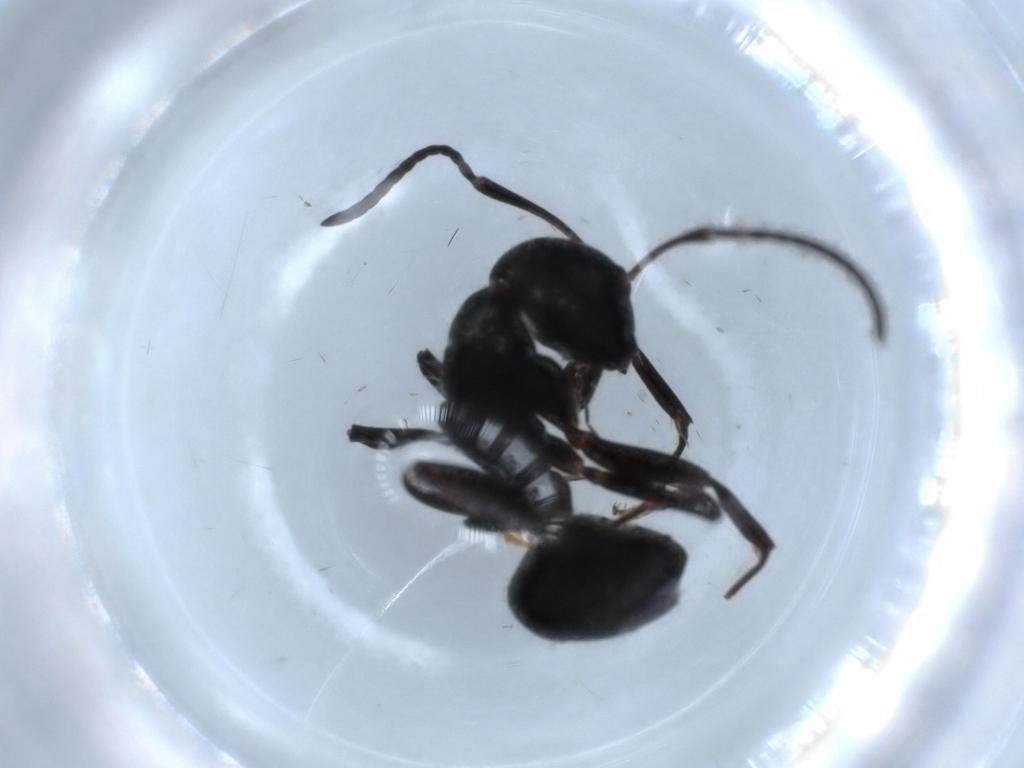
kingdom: Animalia
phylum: Arthropoda
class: Insecta
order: Hymenoptera
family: Formicidae
